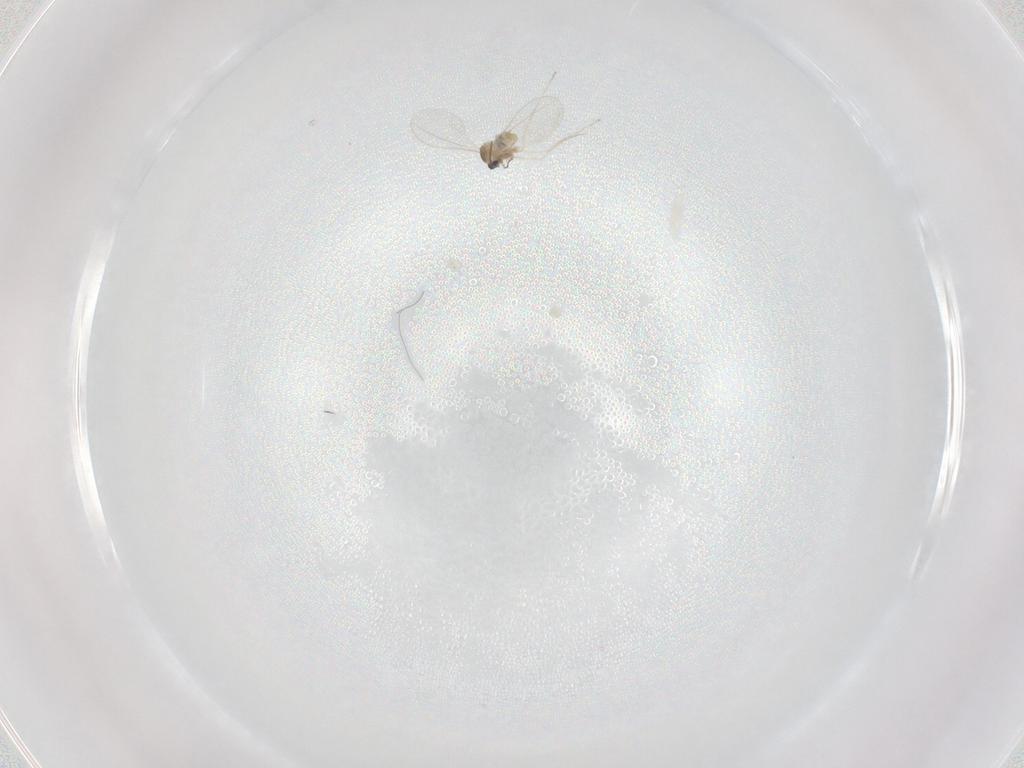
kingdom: Animalia
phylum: Arthropoda
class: Insecta
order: Diptera
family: Cecidomyiidae
